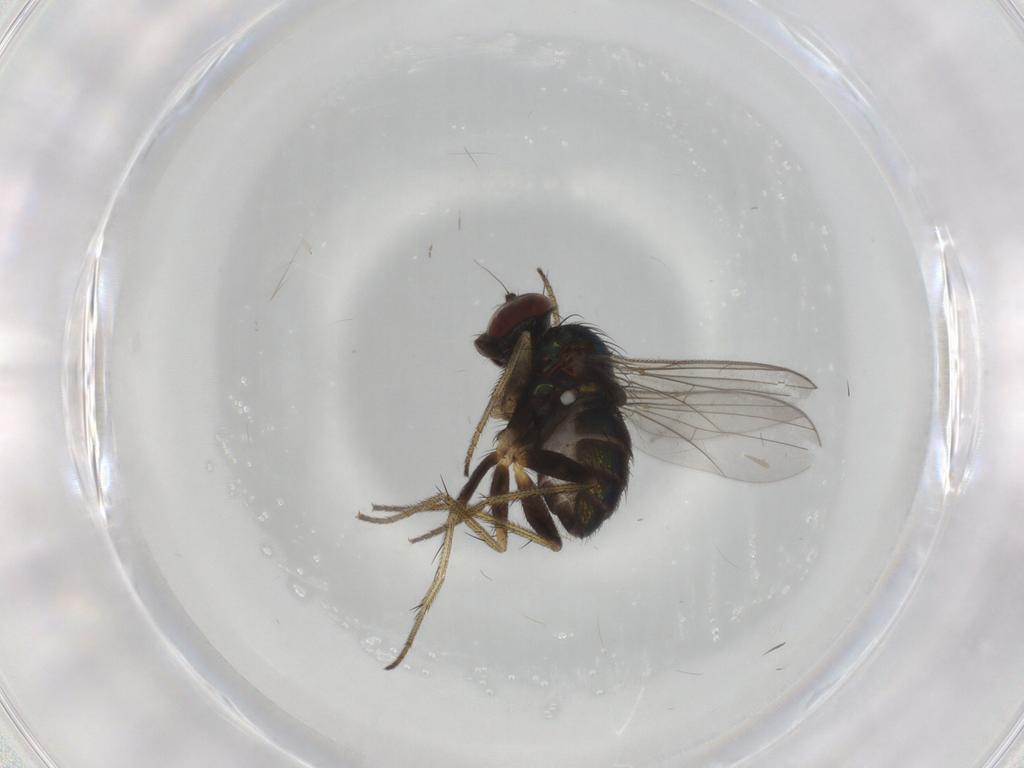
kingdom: Animalia
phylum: Arthropoda
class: Insecta
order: Diptera
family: Dolichopodidae
